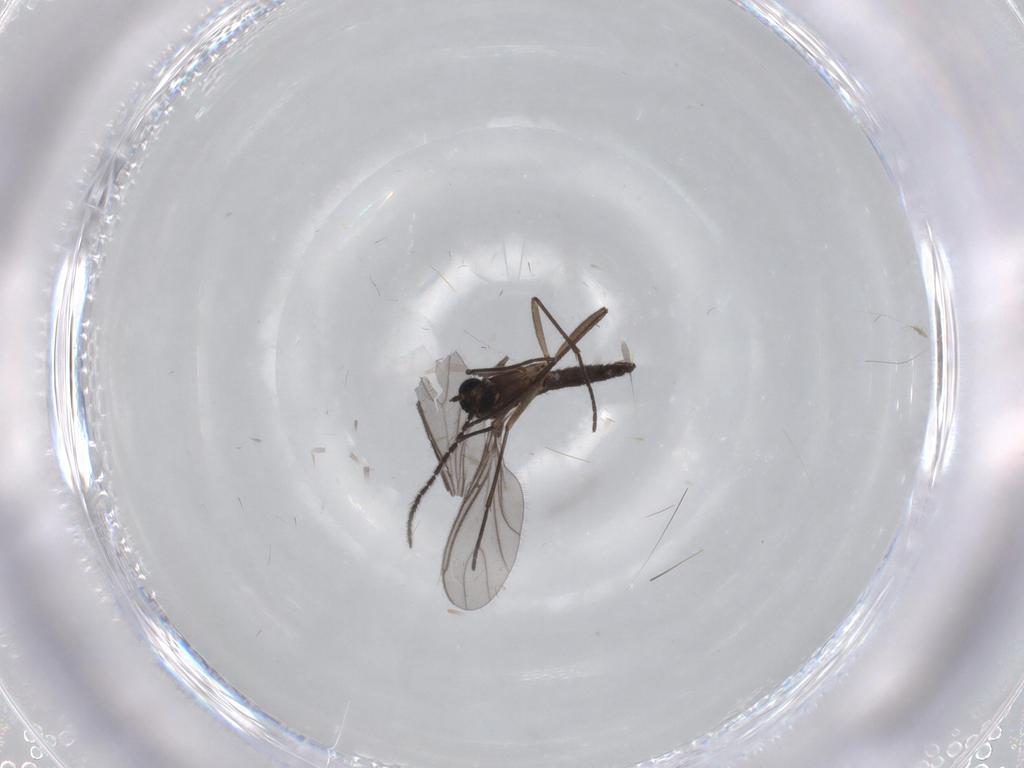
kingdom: Animalia
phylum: Arthropoda
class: Insecta
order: Diptera
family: Sciaridae
